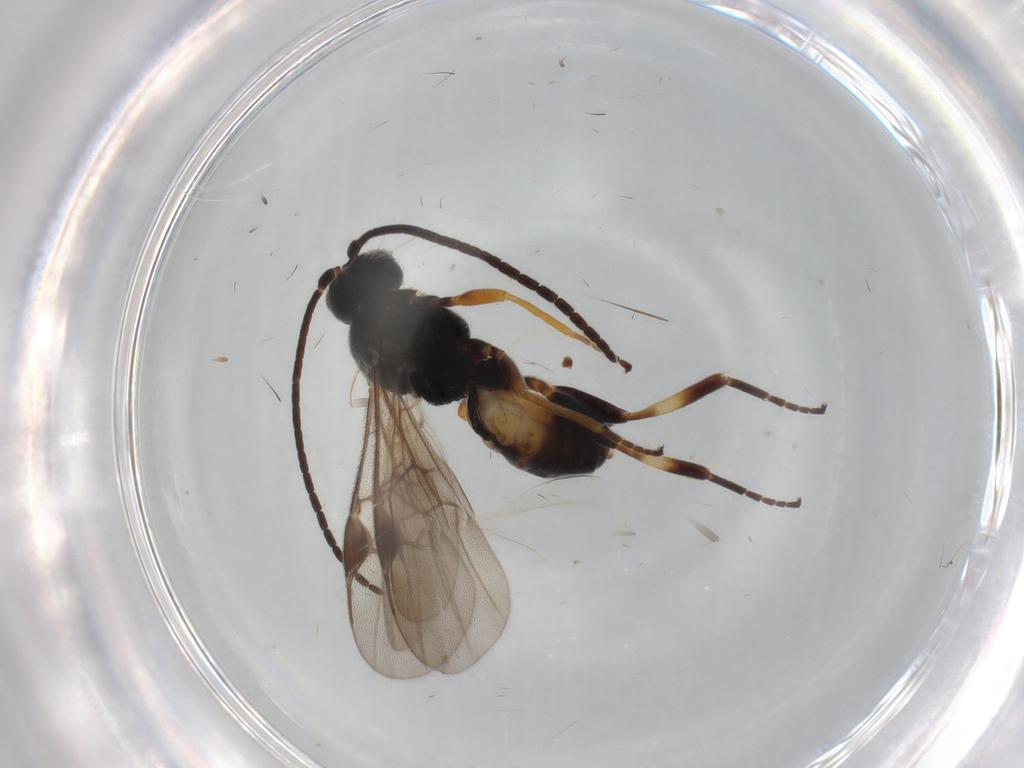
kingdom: Animalia
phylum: Arthropoda
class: Insecta
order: Hymenoptera
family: Braconidae
